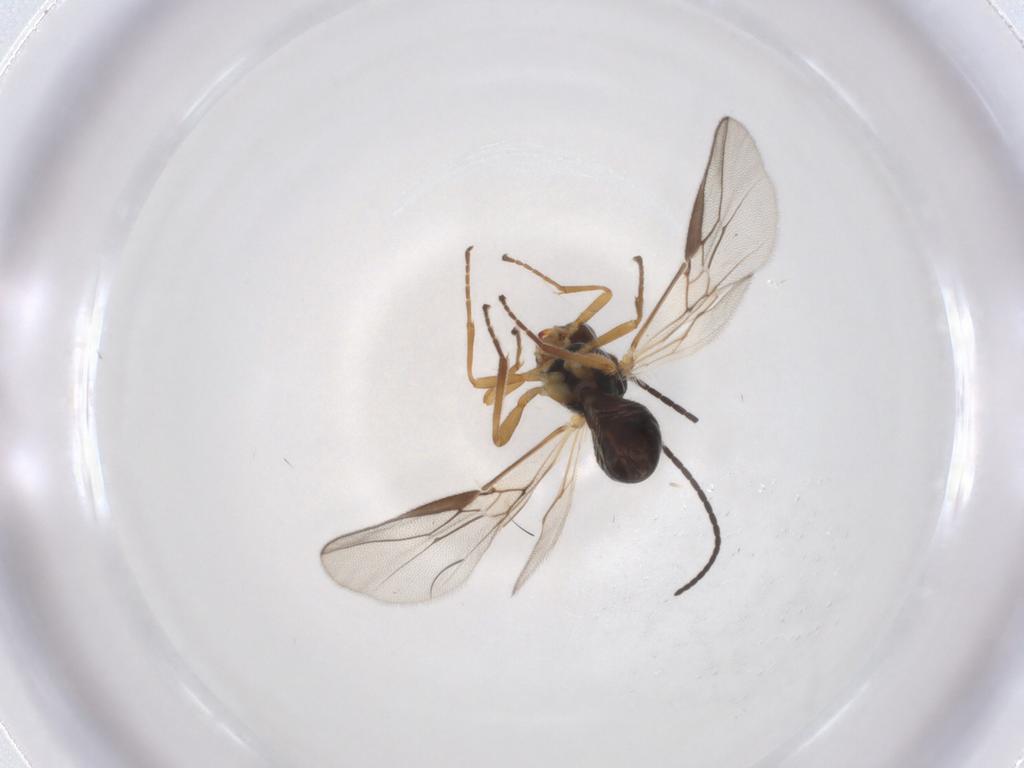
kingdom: Animalia
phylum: Arthropoda
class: Insecta
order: Hymenoptera
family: Braconidae
